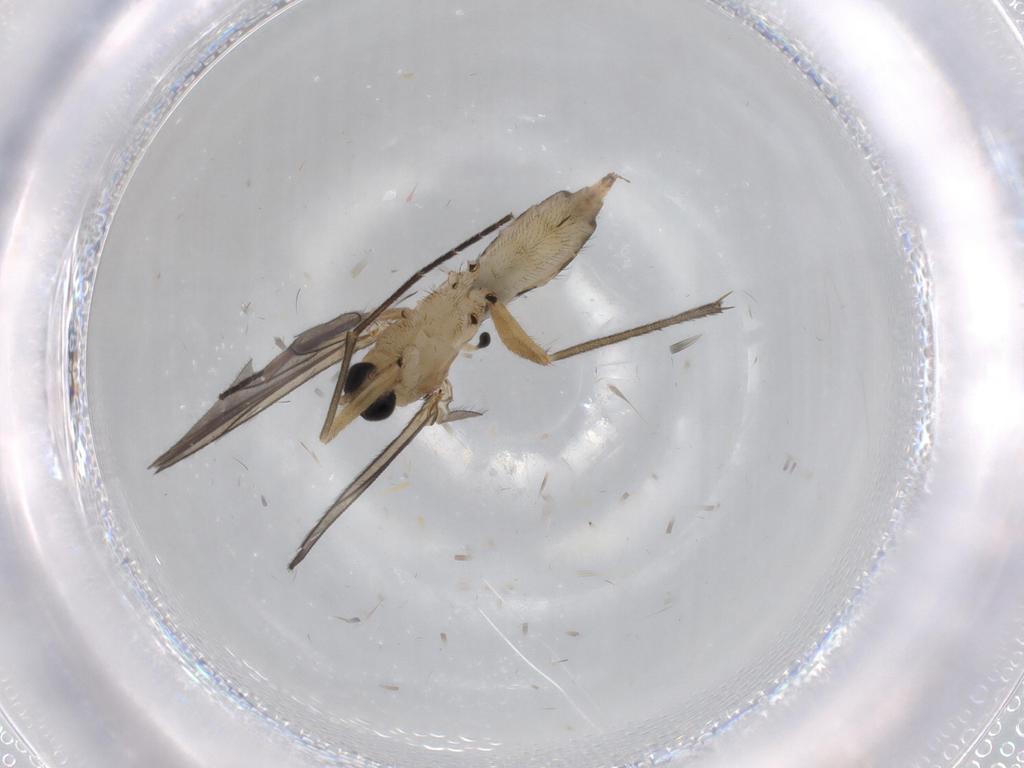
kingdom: Animalia
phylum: Arthropoda
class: Insecta
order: Diptera
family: Sciaridae
